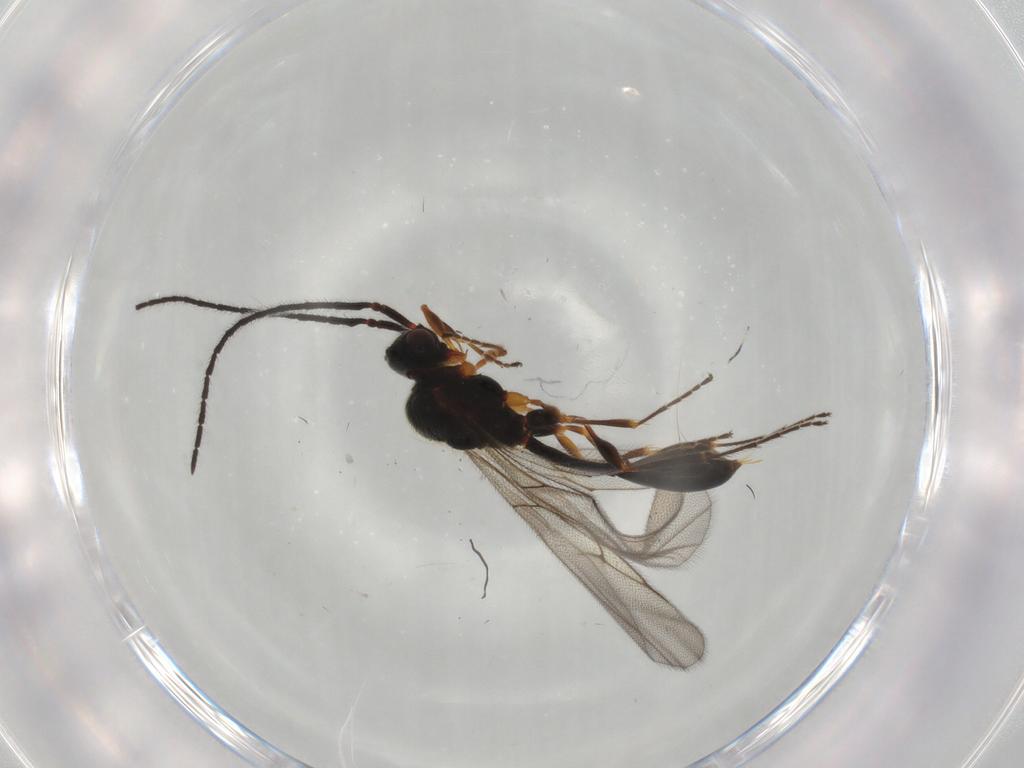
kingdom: Animalia
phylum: Arthropoda
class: Insecta
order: Hymenoptera
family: Diapriidae
